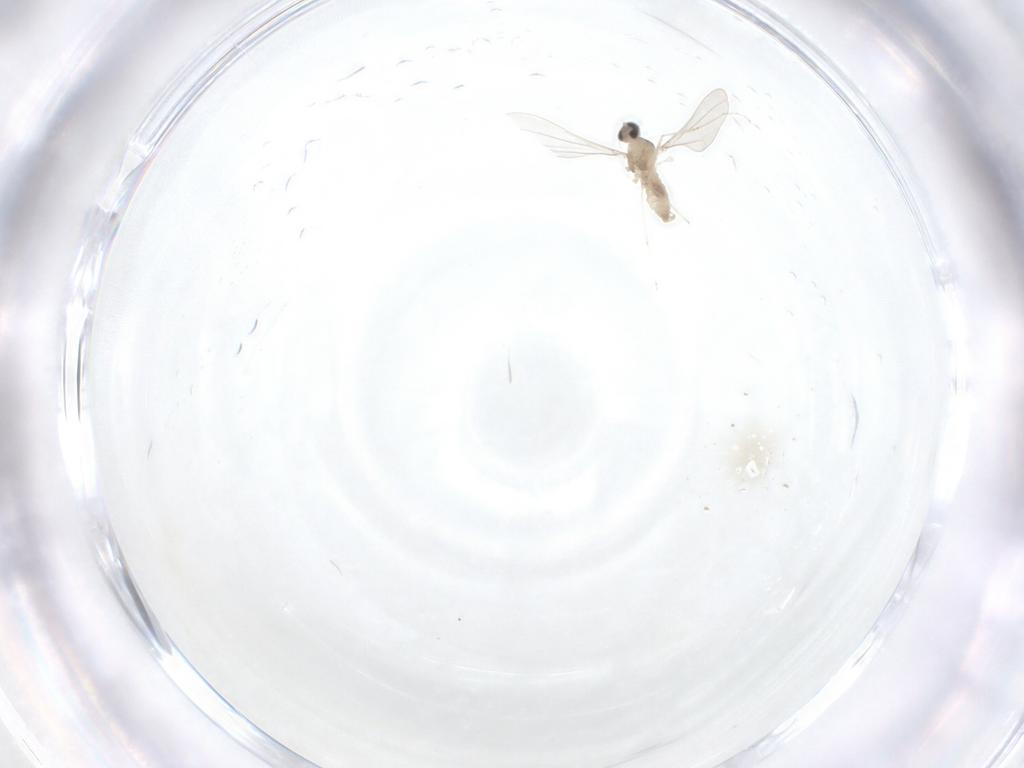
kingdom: Animalia
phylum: Arthropoda
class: Insecta
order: Diptera
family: Cecidomyiidae
